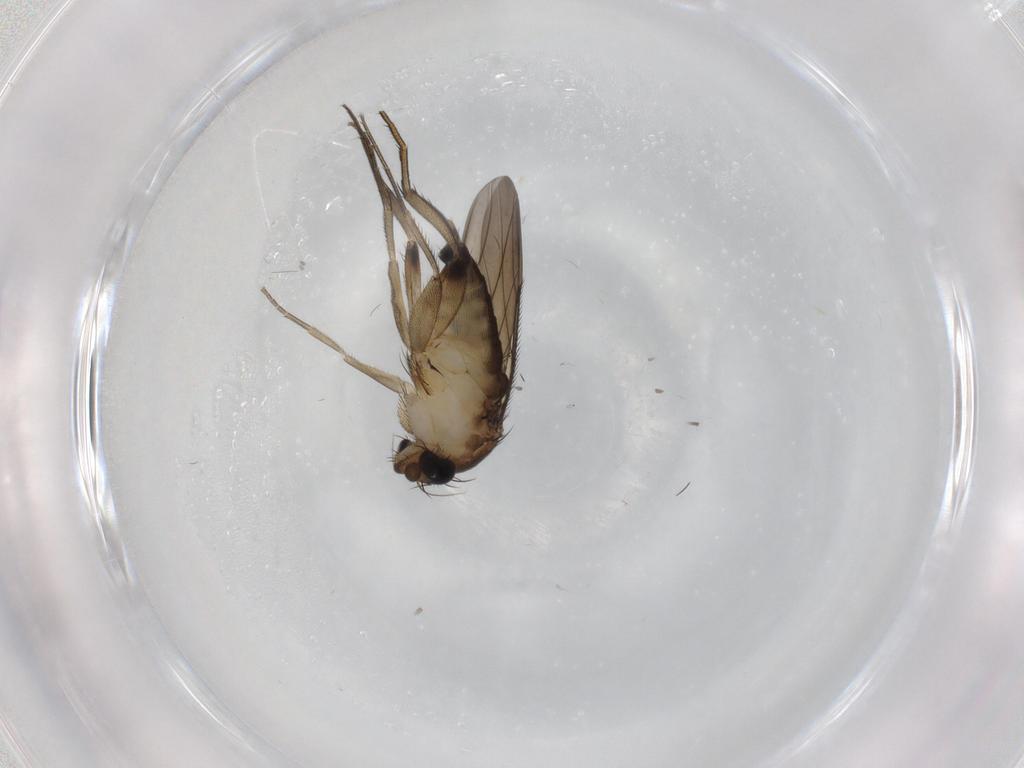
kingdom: Animalia
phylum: Arthropoda
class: Insecta
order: Diptera
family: Phoridae
